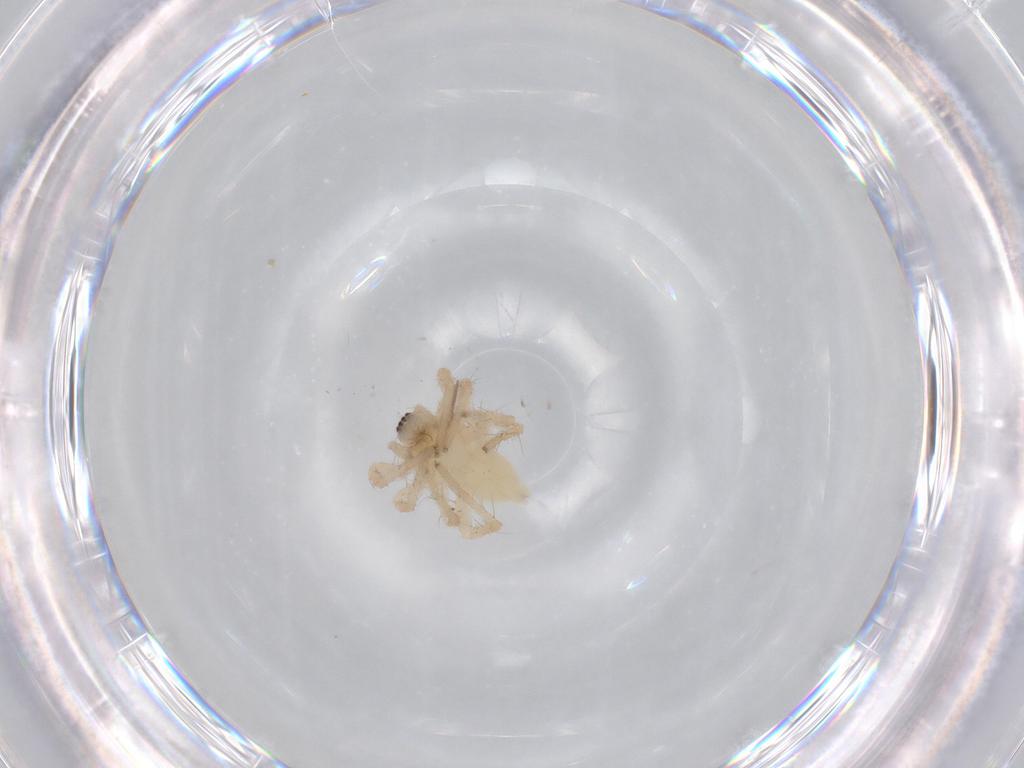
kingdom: Animalia
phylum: Arthropoda
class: Arachnida
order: Araneae
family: Anyphaenidae
